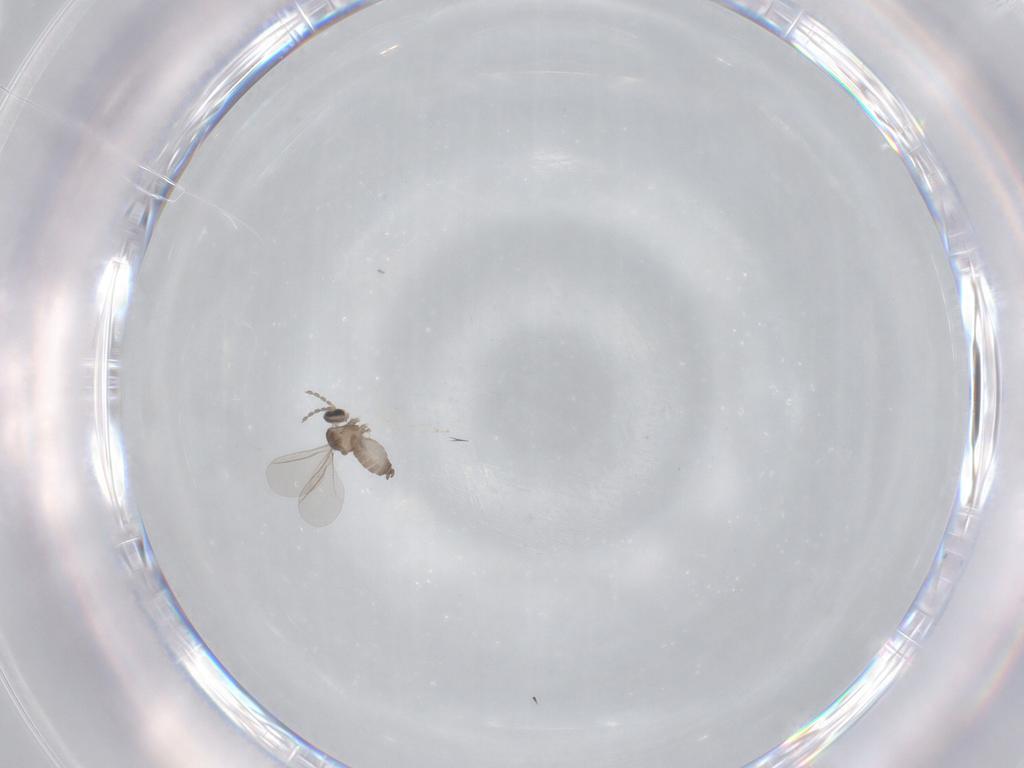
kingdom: Animalia
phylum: Arthropoda
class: Insecta
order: Diptera
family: Cecidomyiidae
